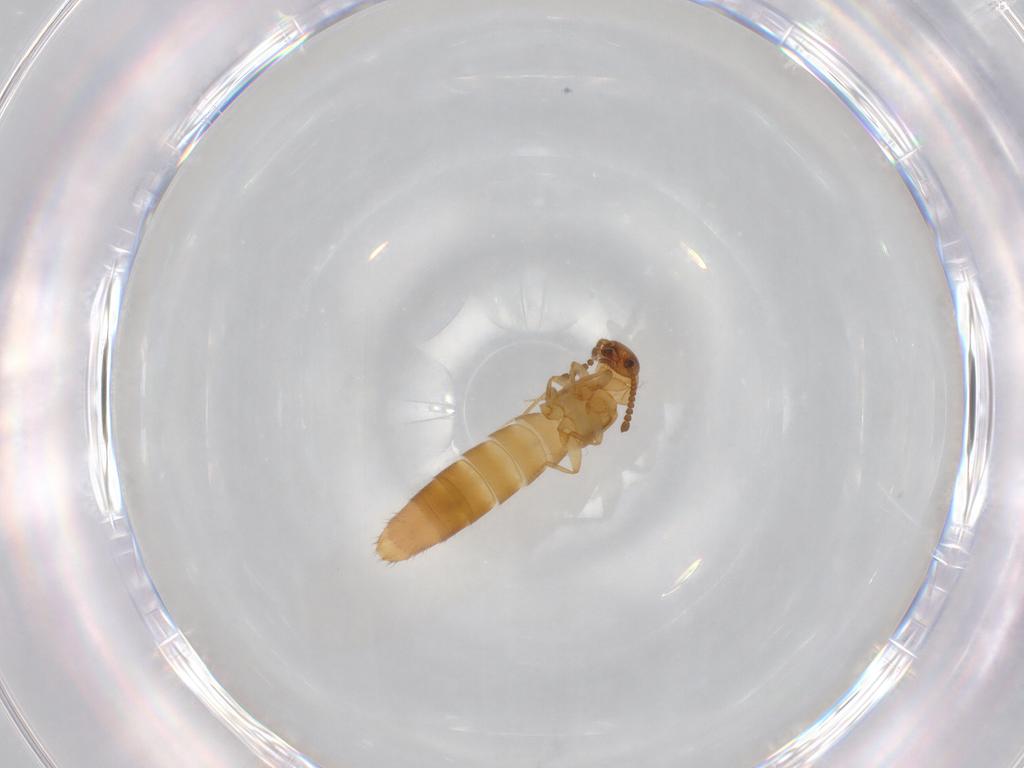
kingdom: Animalia
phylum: Arthropoda
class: Insecta
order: Coleoptera
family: Staphylinidae
